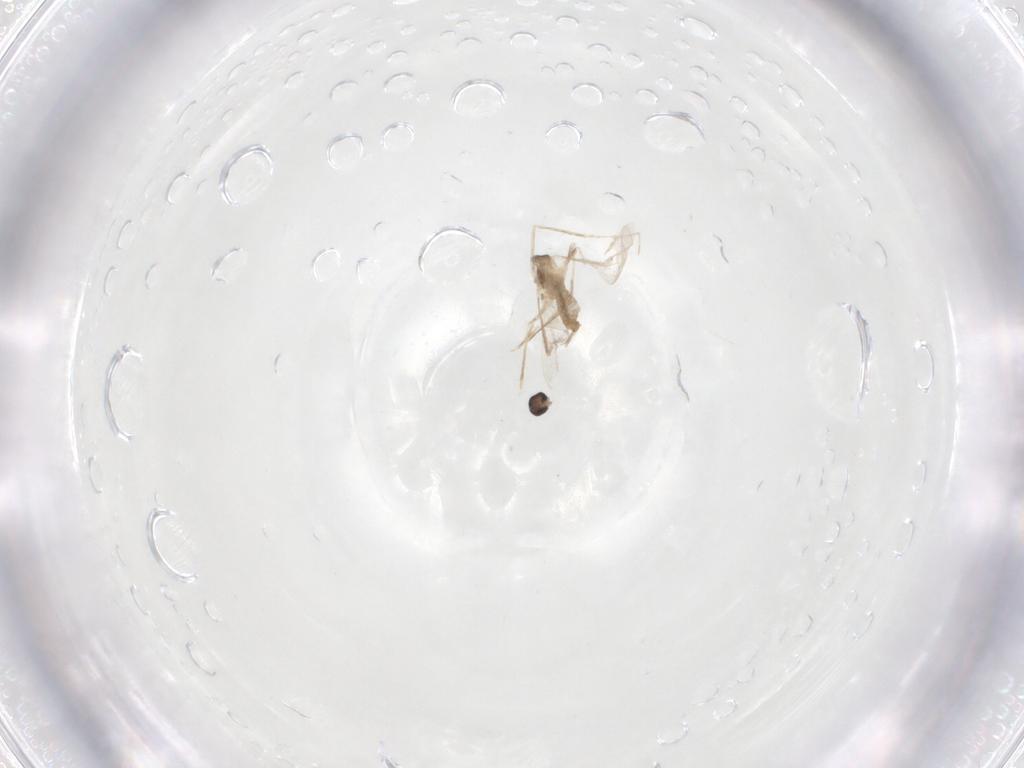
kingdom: Animalia
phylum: Arthropoda
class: Insecta
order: Diptera
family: Cecidomyiidae
